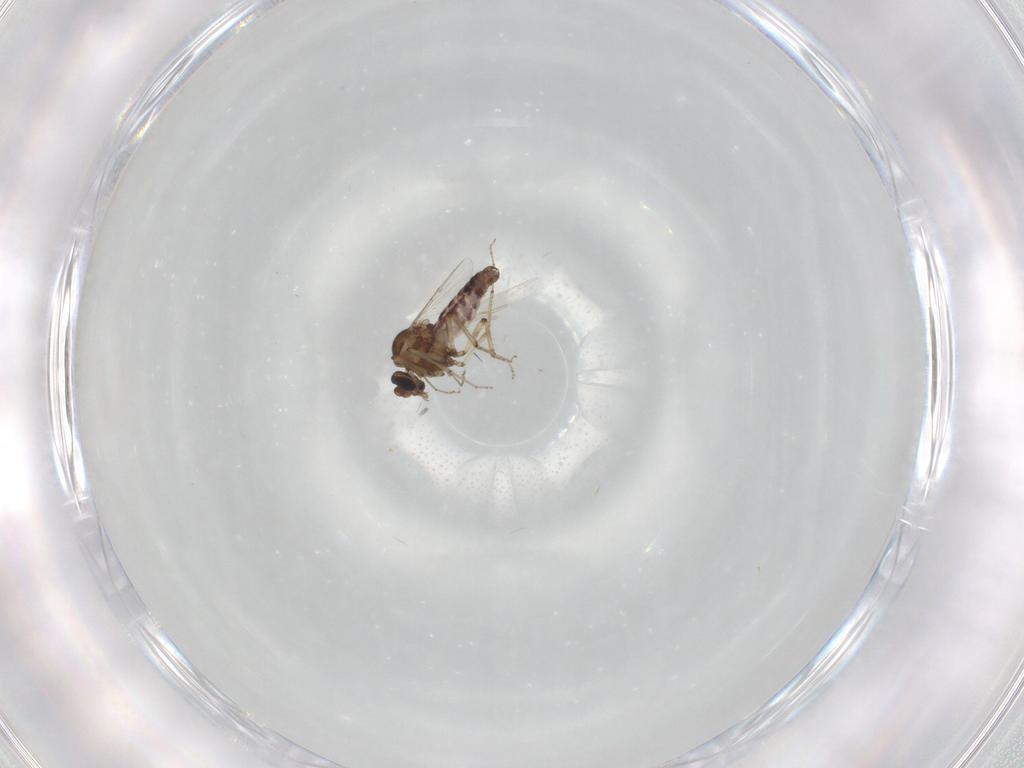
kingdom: Animalia
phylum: Arthropoda
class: Insecta
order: Diptera
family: Ceratopogonidae
